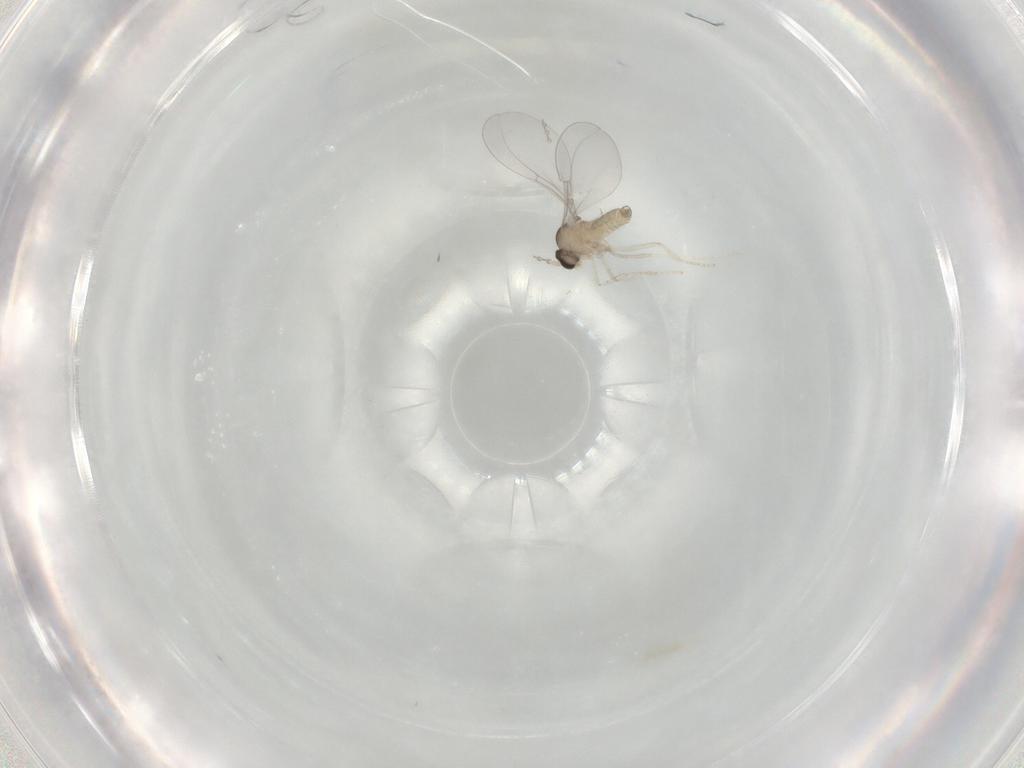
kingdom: Animalia
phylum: Arthropoda
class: Insecta
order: Diptera
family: Cecidomyiidae
